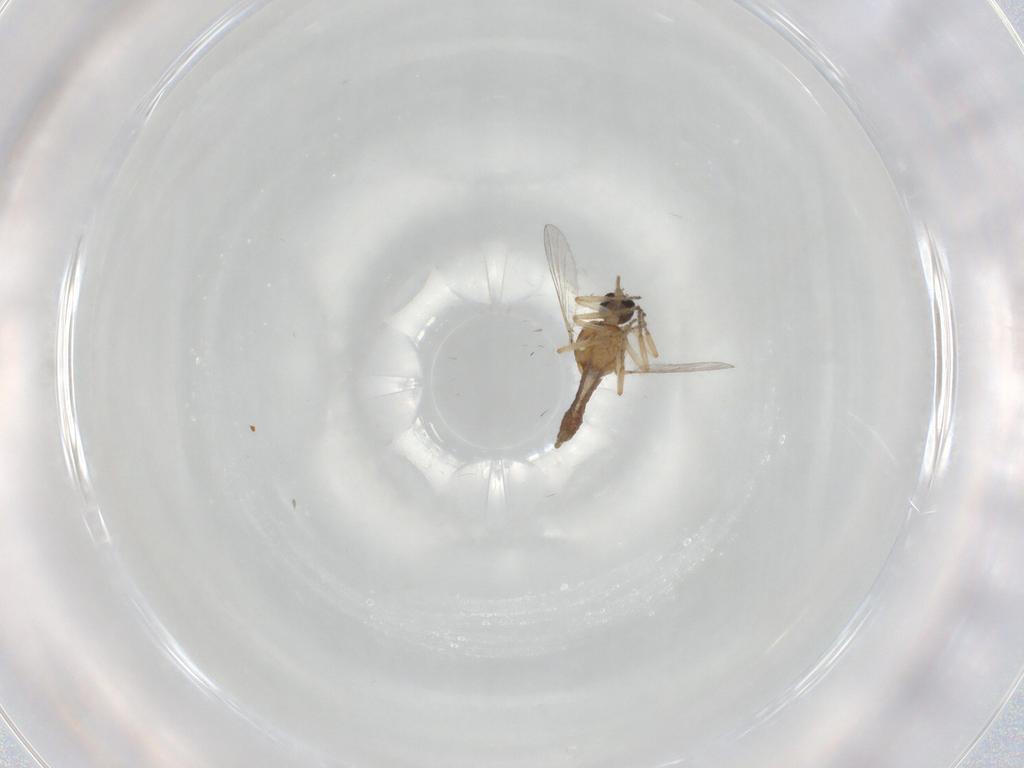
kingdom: Animalia
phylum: Arthropoda
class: Insecta
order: Diptera
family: Ceratopogonidae
